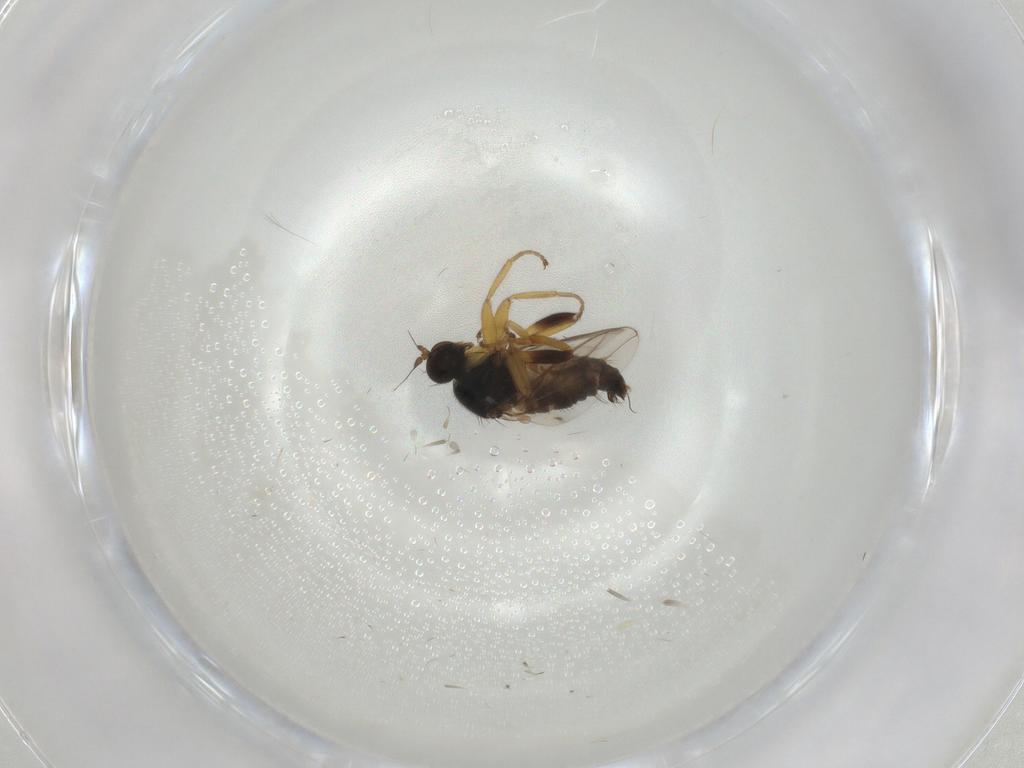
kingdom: Animalia
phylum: Arthropoda
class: Insecta
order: Diptera
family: Hybotidae
